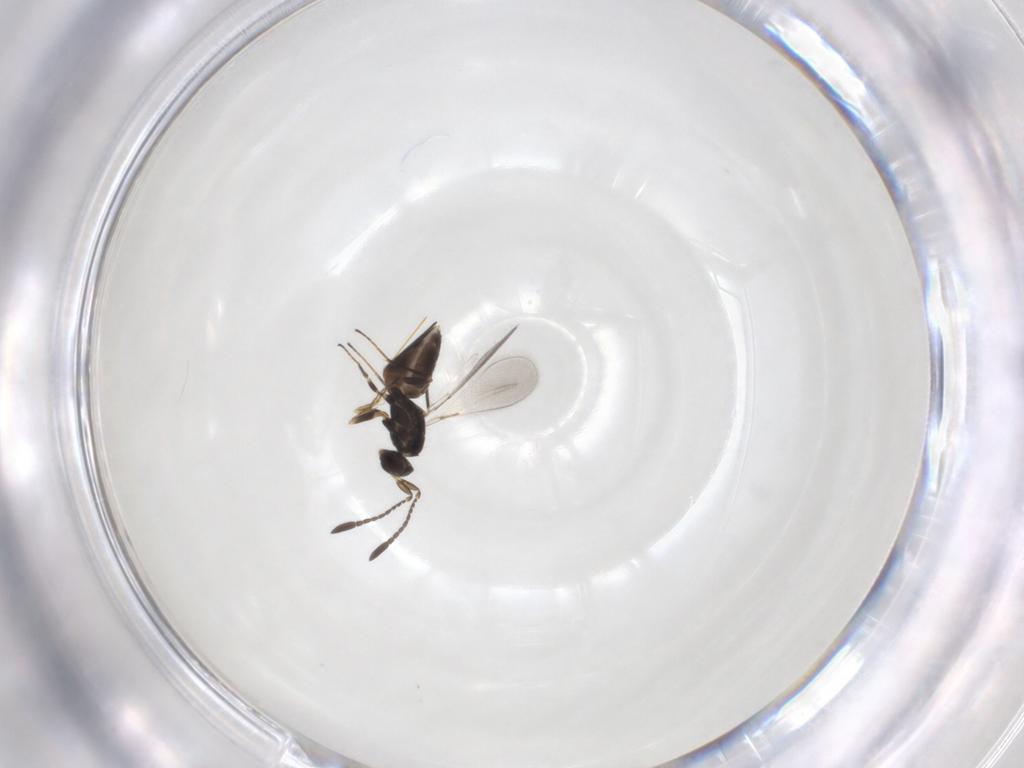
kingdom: Animalia
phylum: Arthropoda
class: Insecta
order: Hymenoptera
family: Mymaridae
